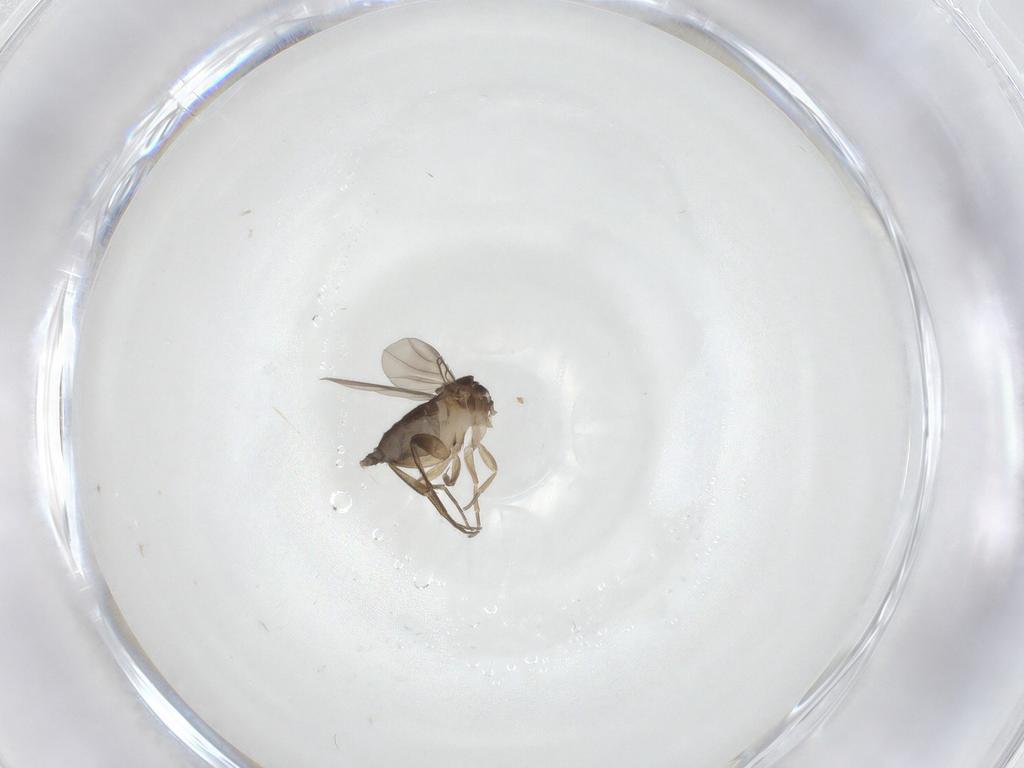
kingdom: Animalia
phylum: Arthropoda
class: Insecta
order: Diptera
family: Phoridae
